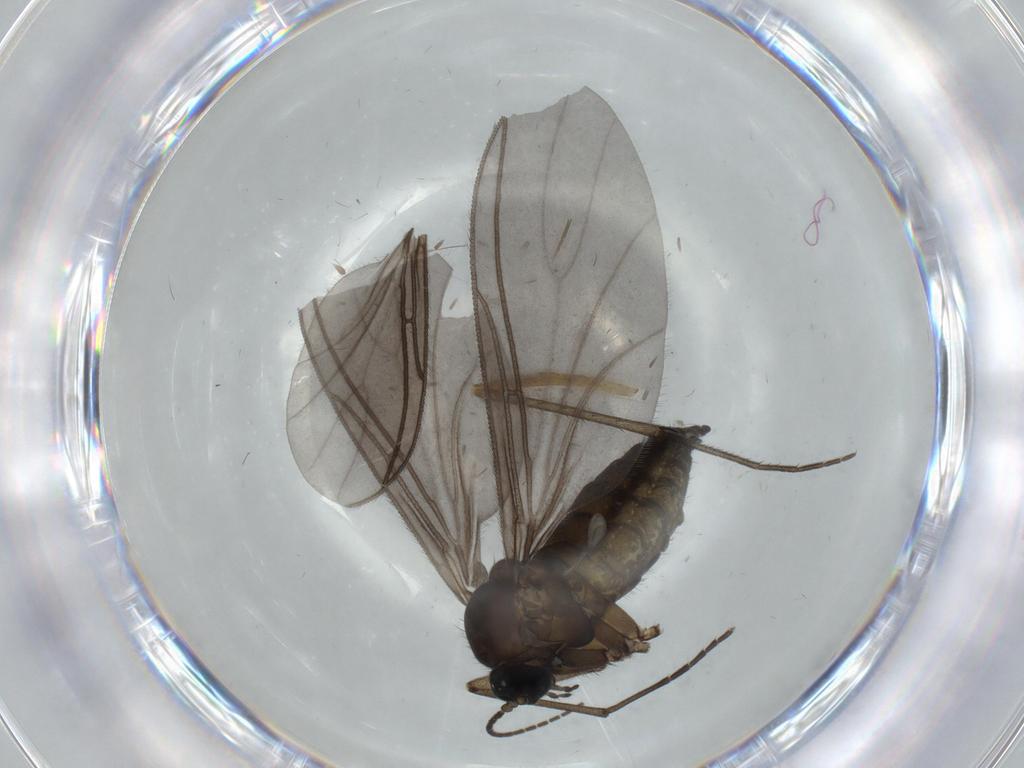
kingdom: Animalia
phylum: Arthropoda
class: Insecta
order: Diptera
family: Sciaridae
